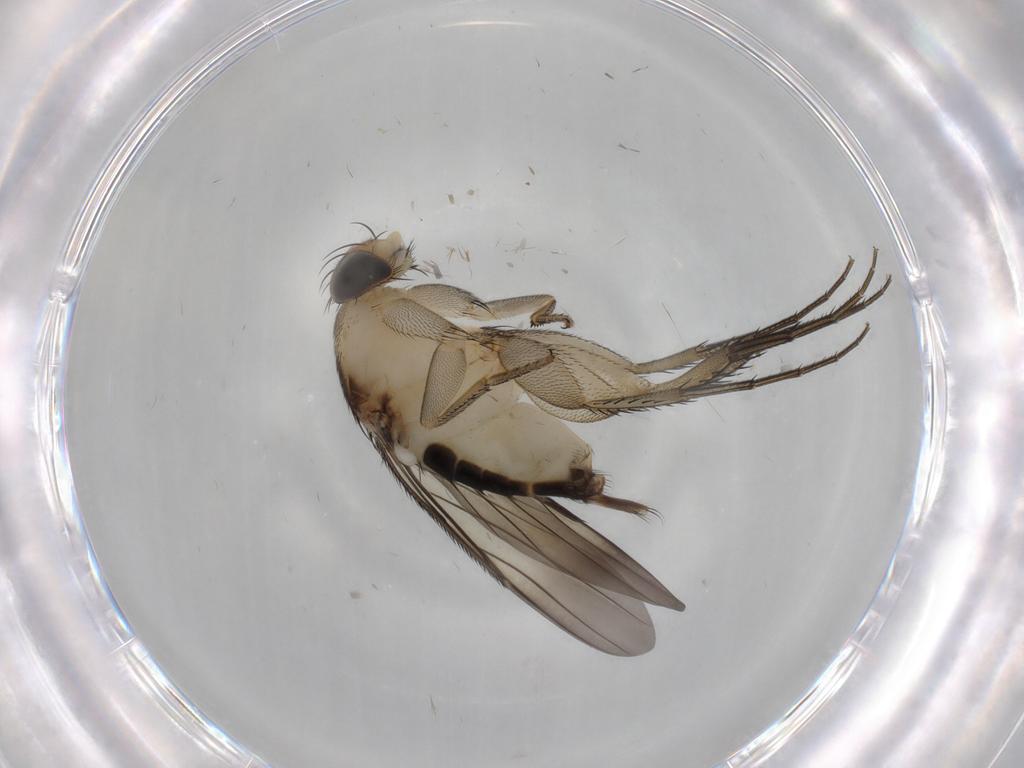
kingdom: Animalia
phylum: Arthropoda
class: Insecta
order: Diptera
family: Phoridae
